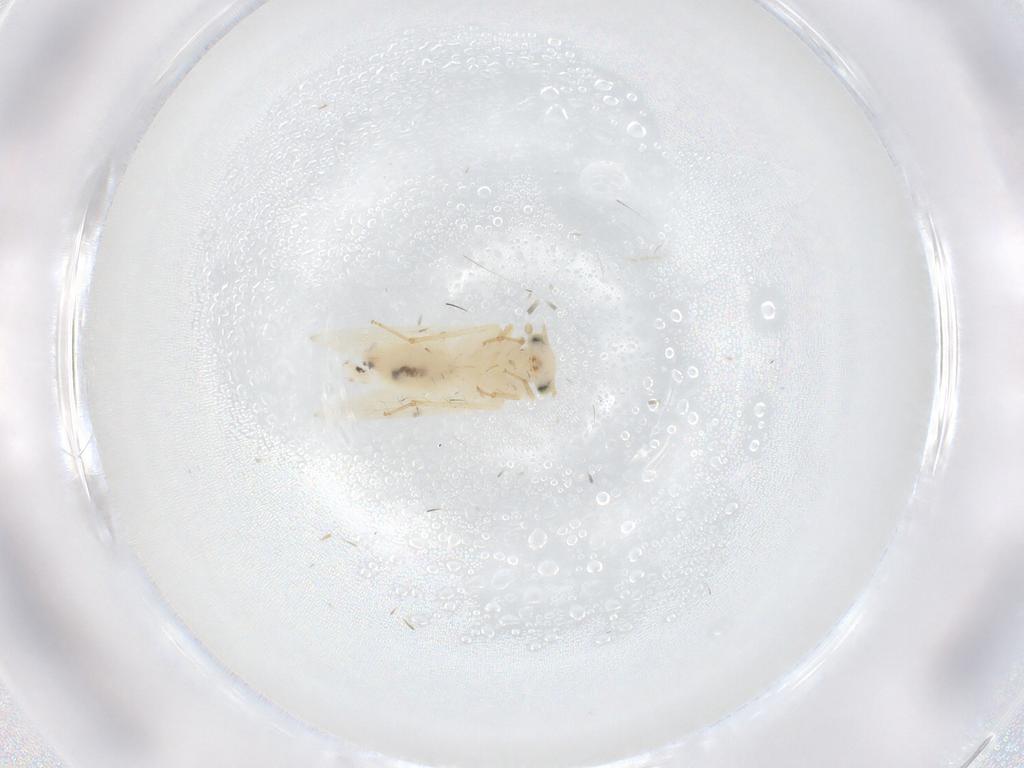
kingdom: Animalia
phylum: Arthropoda
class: Insecta
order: Psocodea
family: Lepidopsocidae
